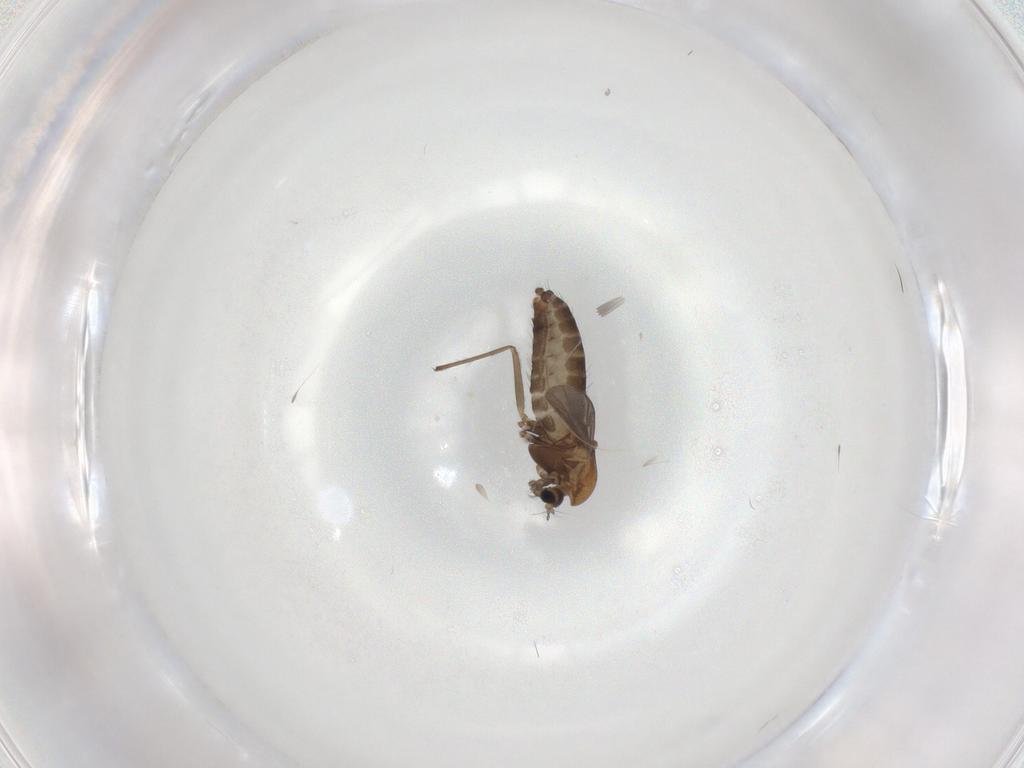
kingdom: Animalia
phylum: Arthropoda
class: Insecta
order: Diptera
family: Chironomidae
